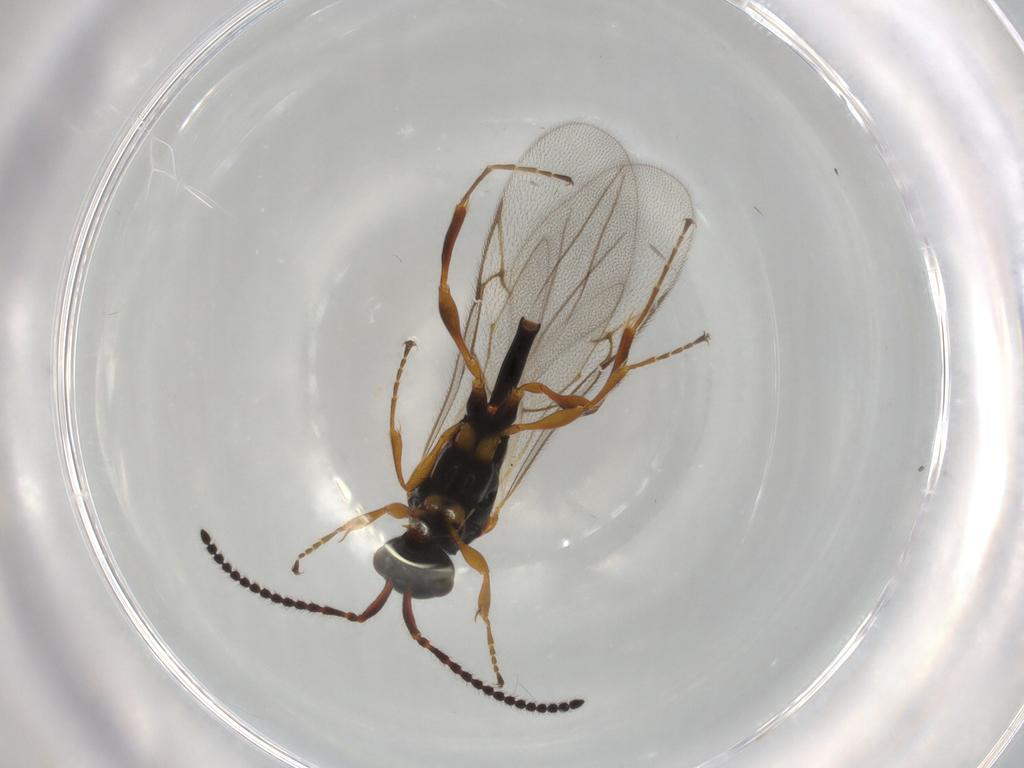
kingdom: Animalia
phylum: Arthropoda
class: Insecta
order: Hymenoptera
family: Diapriidae
